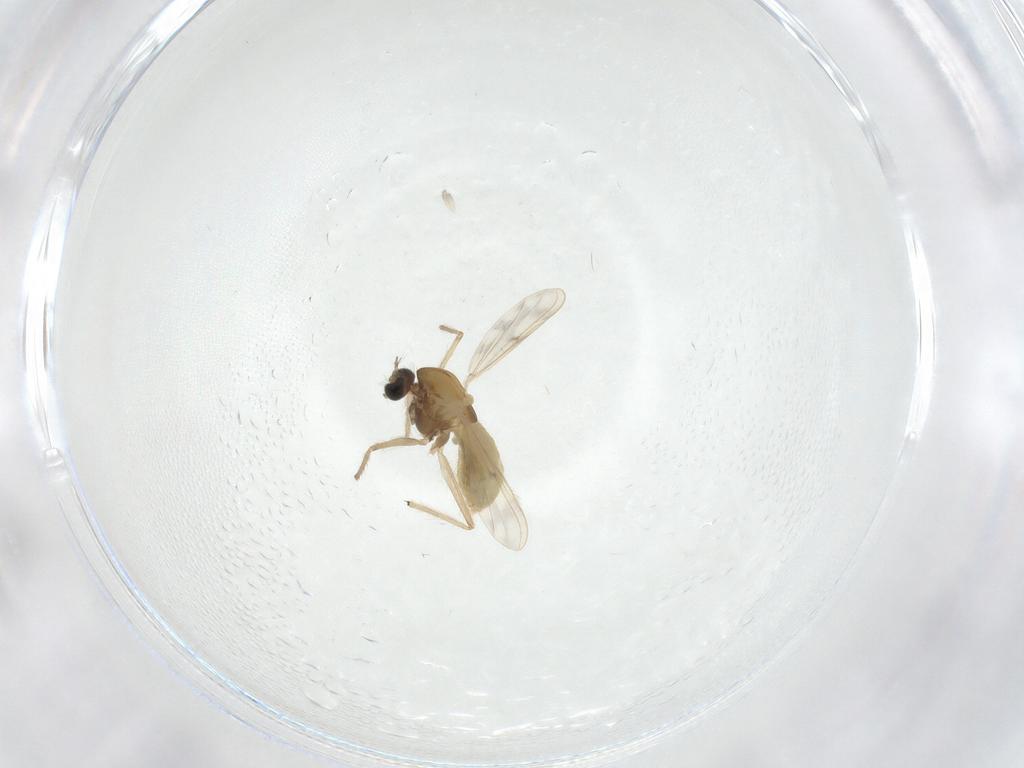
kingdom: Animalia
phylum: Arthropoda
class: Insecta
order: Diptera
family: Chironomidae
